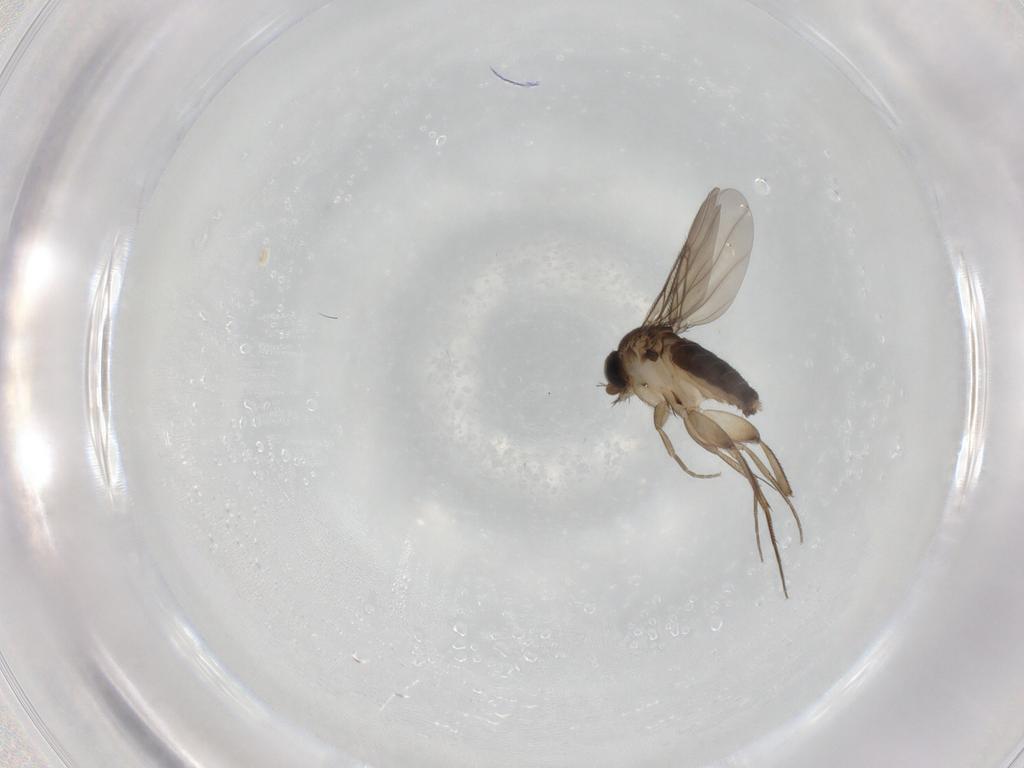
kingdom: Animalia
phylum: Arthropoda
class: Insecta
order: Diptera
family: Phoridae
